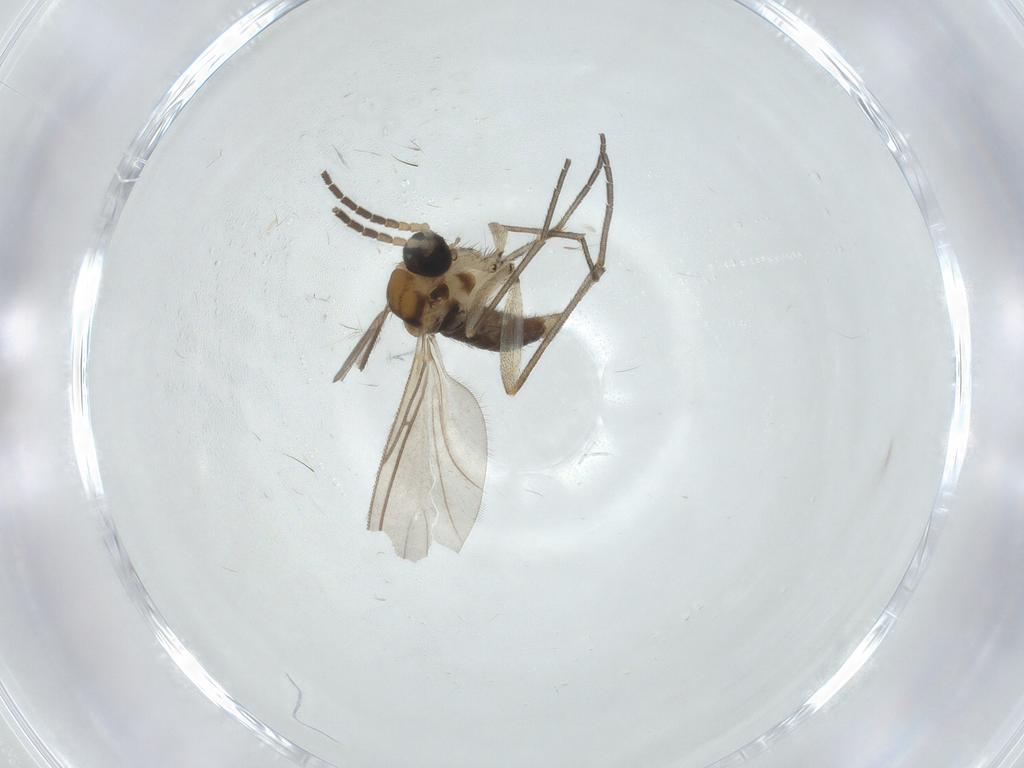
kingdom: Animalia
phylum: Arthropoda
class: Insecta
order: Diptera
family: Sciaridae
